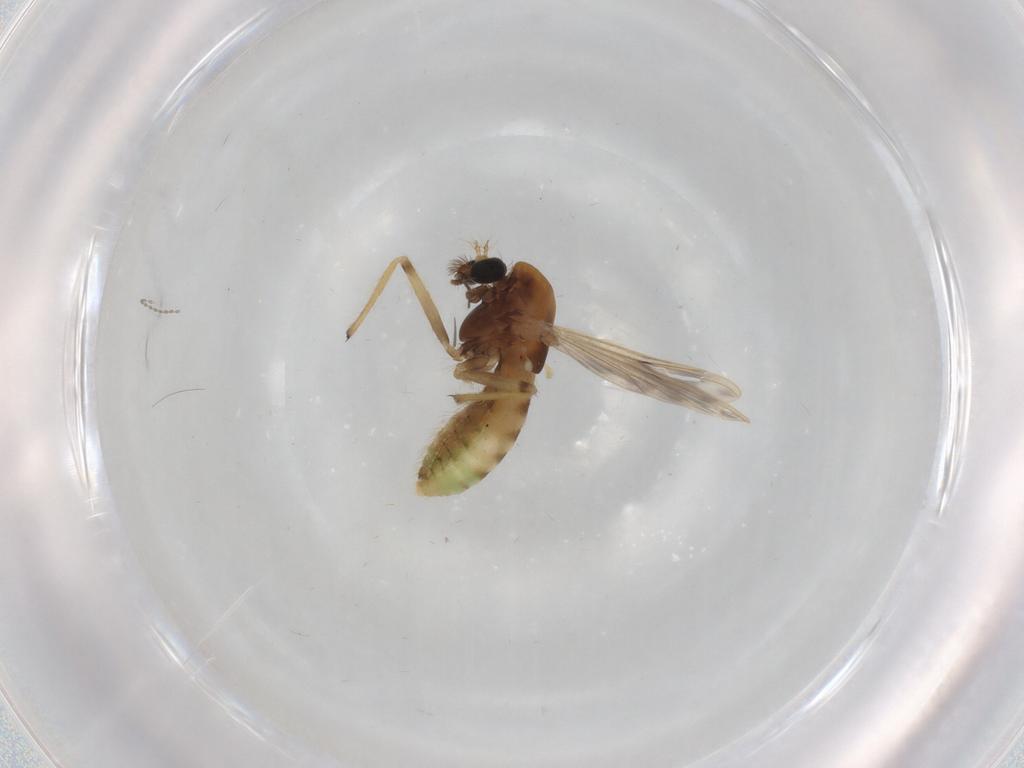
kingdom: Animalia
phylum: Arthropoda
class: Insecta
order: Diptera
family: Chironomidae
